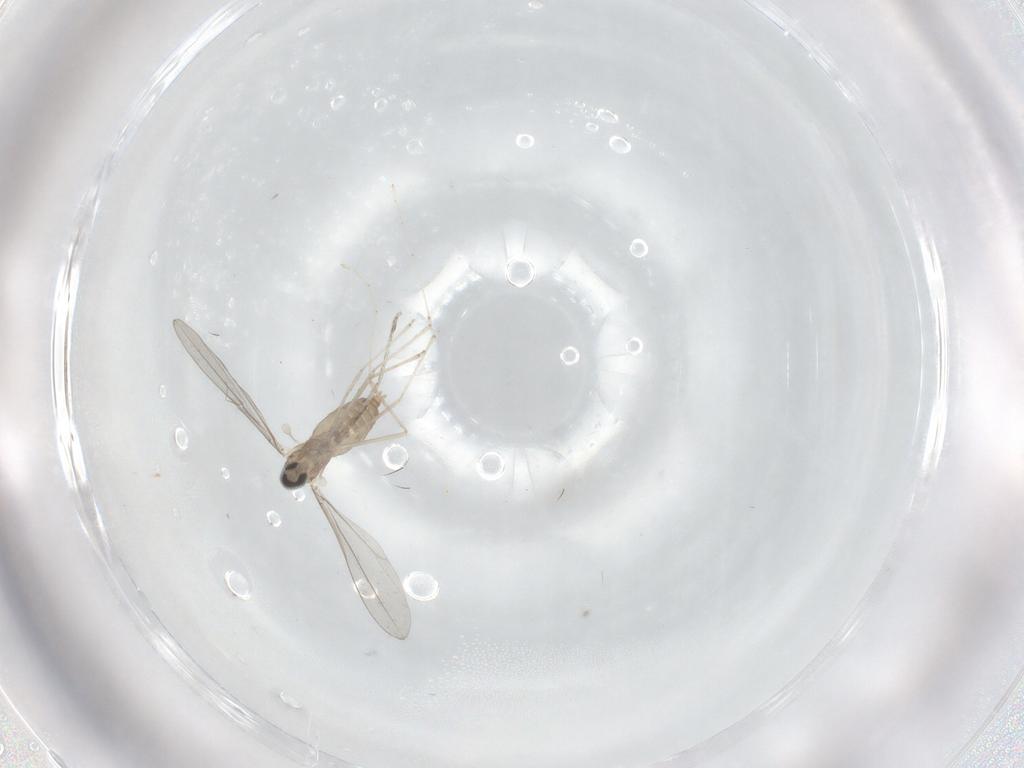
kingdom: Animalia
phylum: Arthropoda
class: Insecta
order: Diptera
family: Cecidomyiidae
